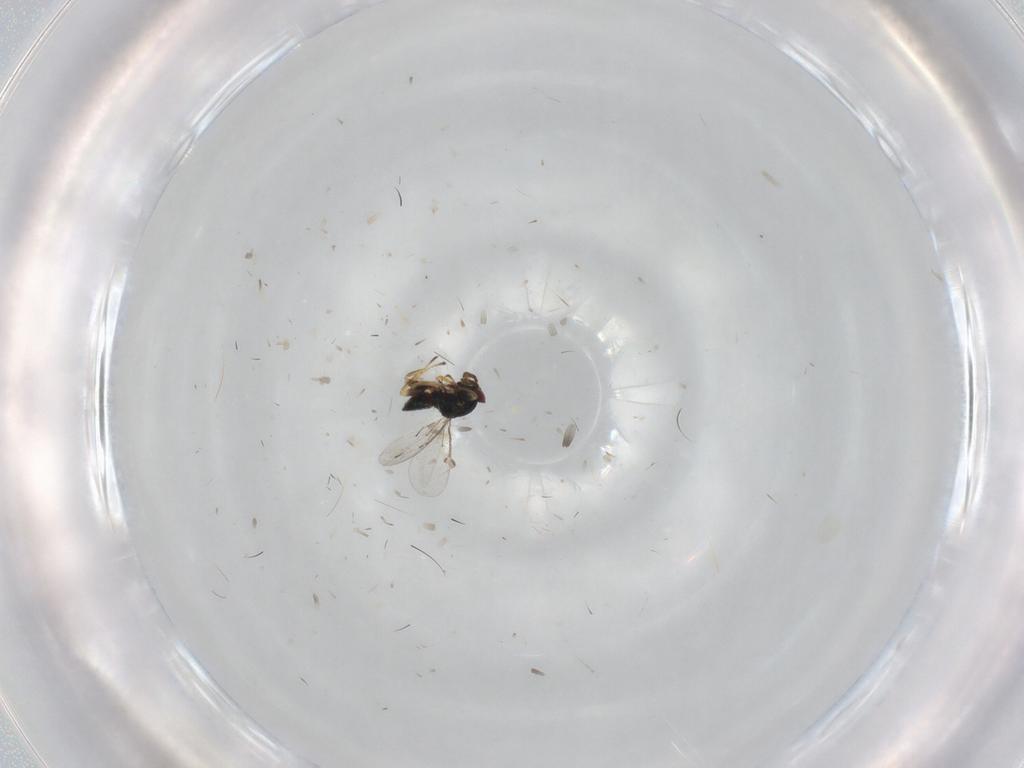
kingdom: Animalia
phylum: Arthropoda
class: Insecta
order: Hymenoptera
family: Eulophidae
